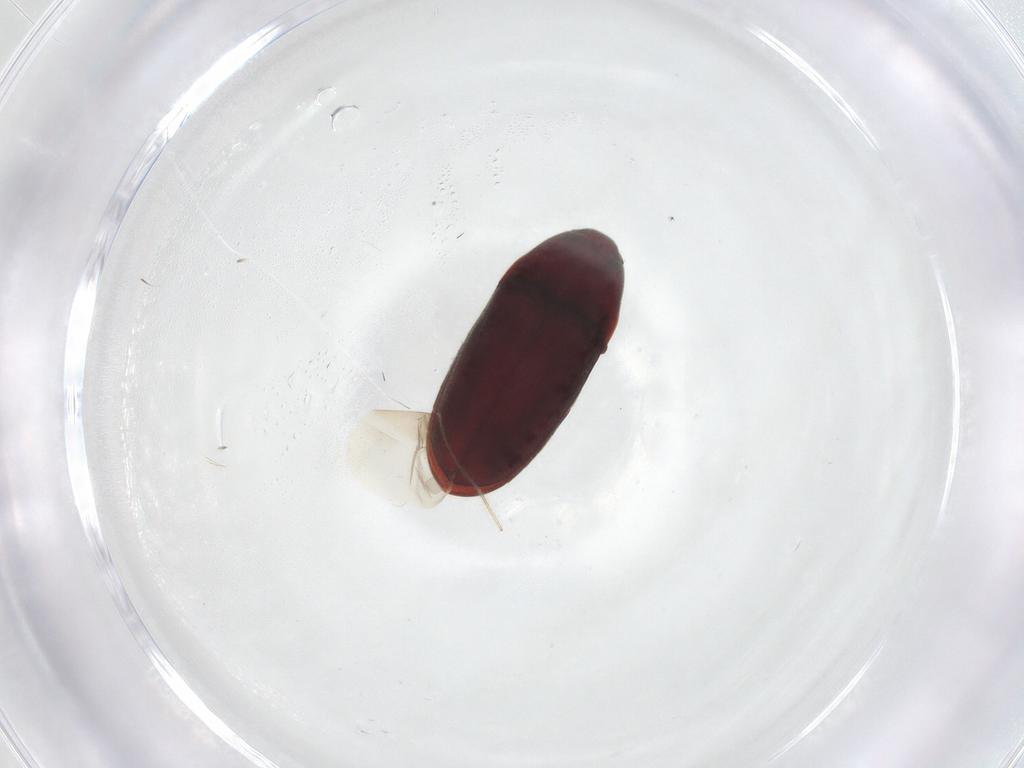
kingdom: Animalia
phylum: Arthropoda
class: Insecta
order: Coleoptera
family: Throscidae
